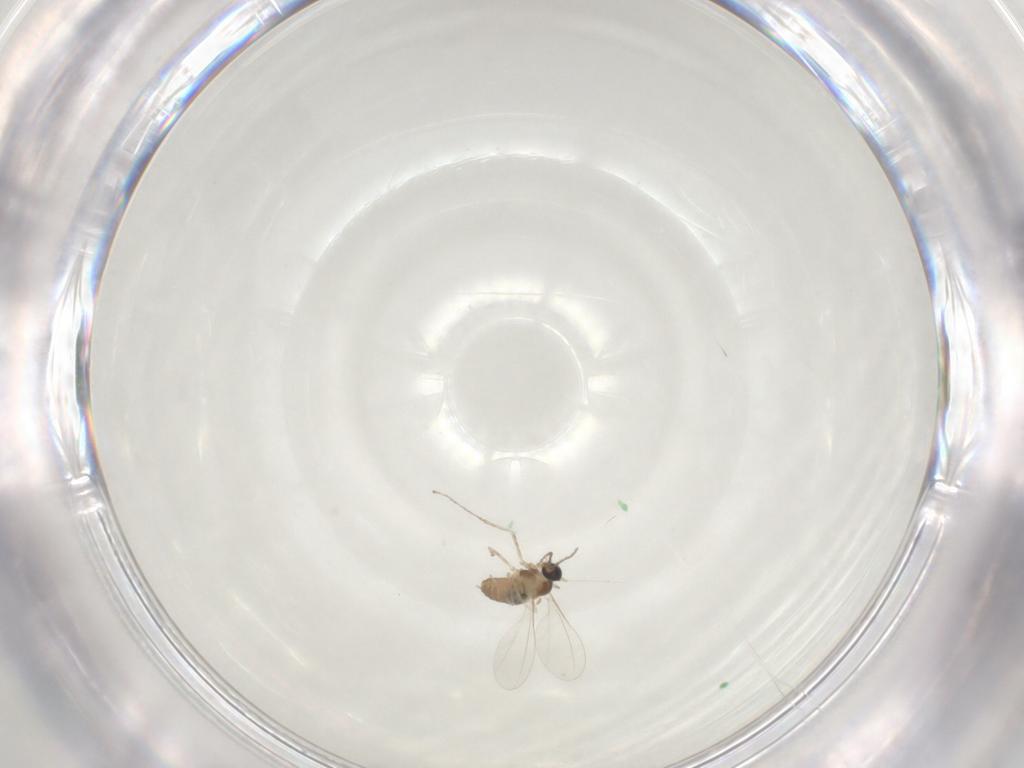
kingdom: Animalia
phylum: Arthropoda
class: Insecta
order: Diptera
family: Cecidomyiidae
